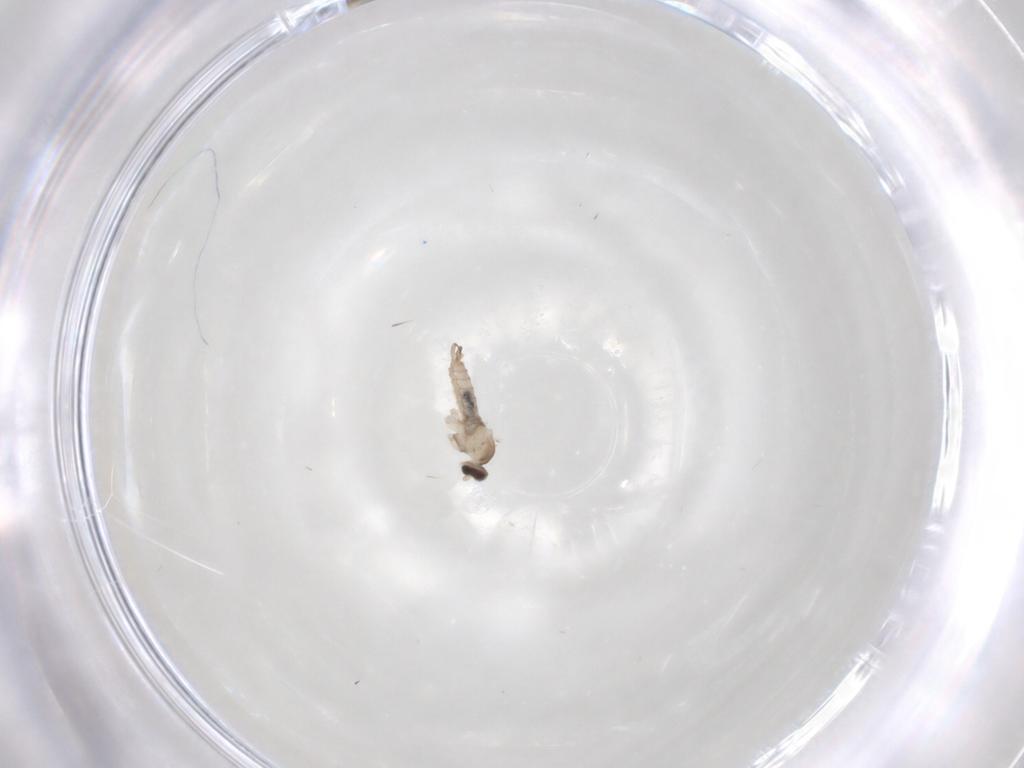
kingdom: Animalia
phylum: Arthropoda
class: Insecta
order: Diptera
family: Cecidomyiidae
